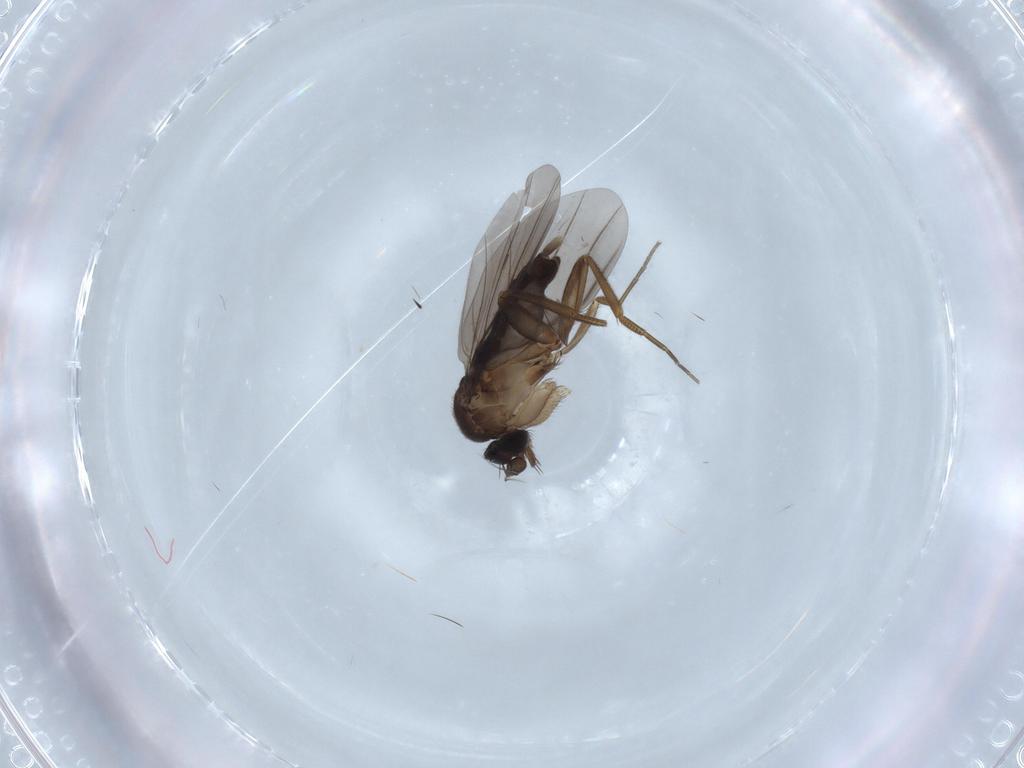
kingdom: Animalia
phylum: Arthropoda
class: Insecta
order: Diptera
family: Phoridae
